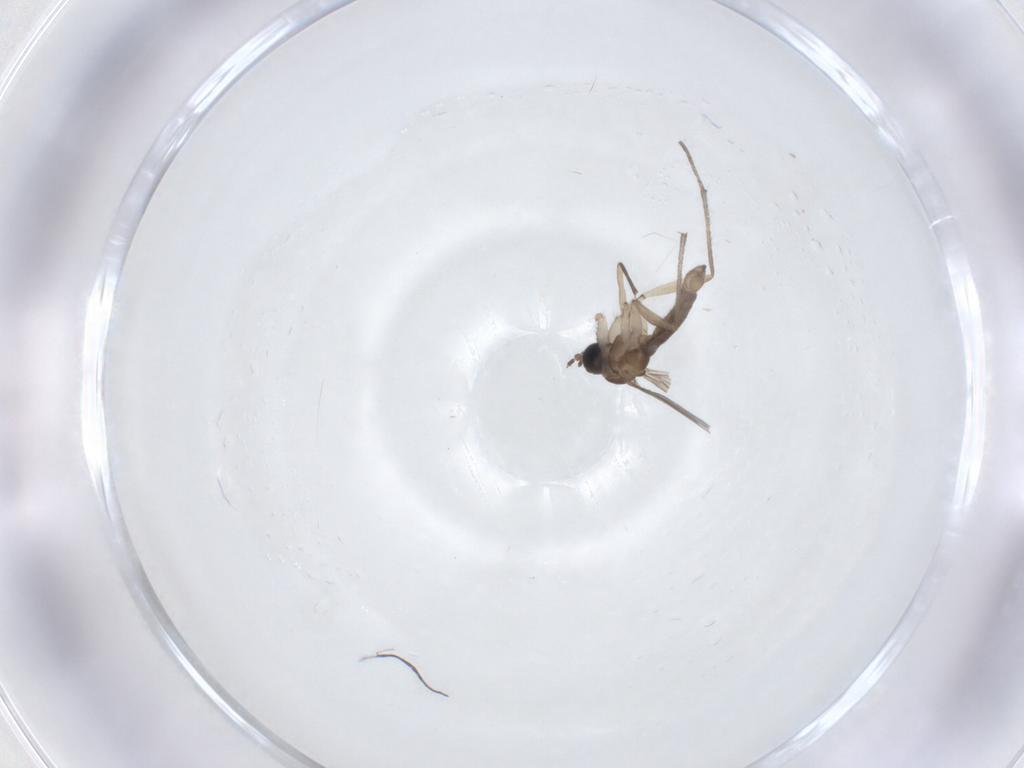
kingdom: Animalia
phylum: Arthropoda
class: Insecta
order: Diptera
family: Sciaridae
